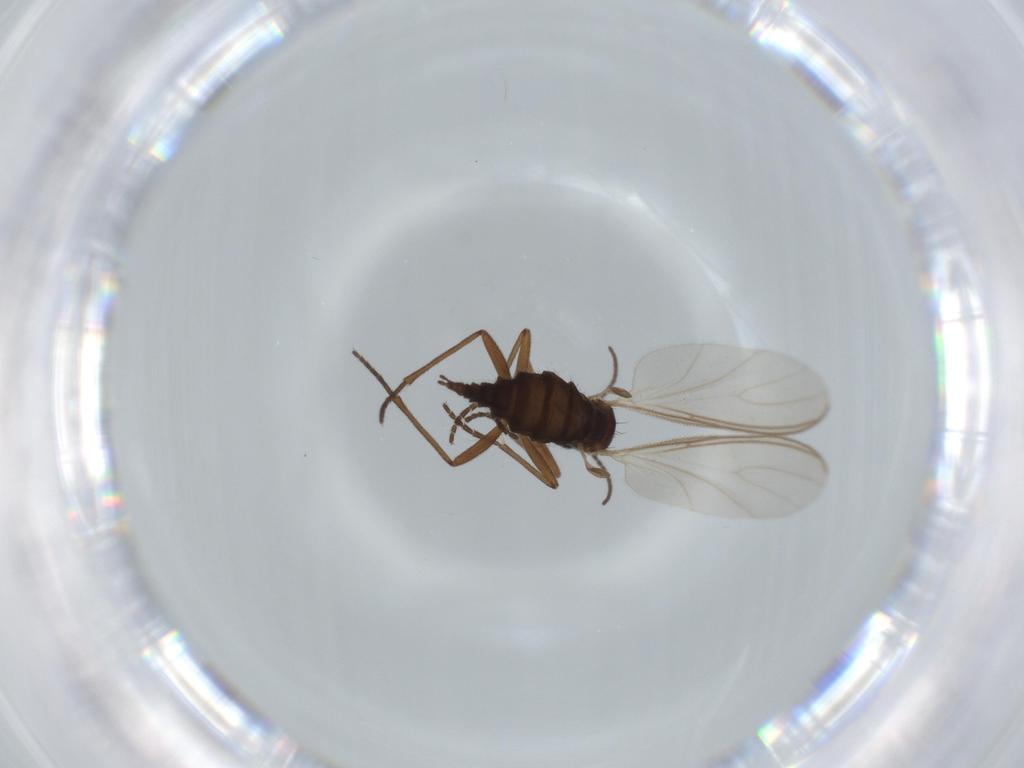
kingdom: Animalia
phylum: Arthropoda
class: Insecta
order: Diptera
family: Sciaridae
